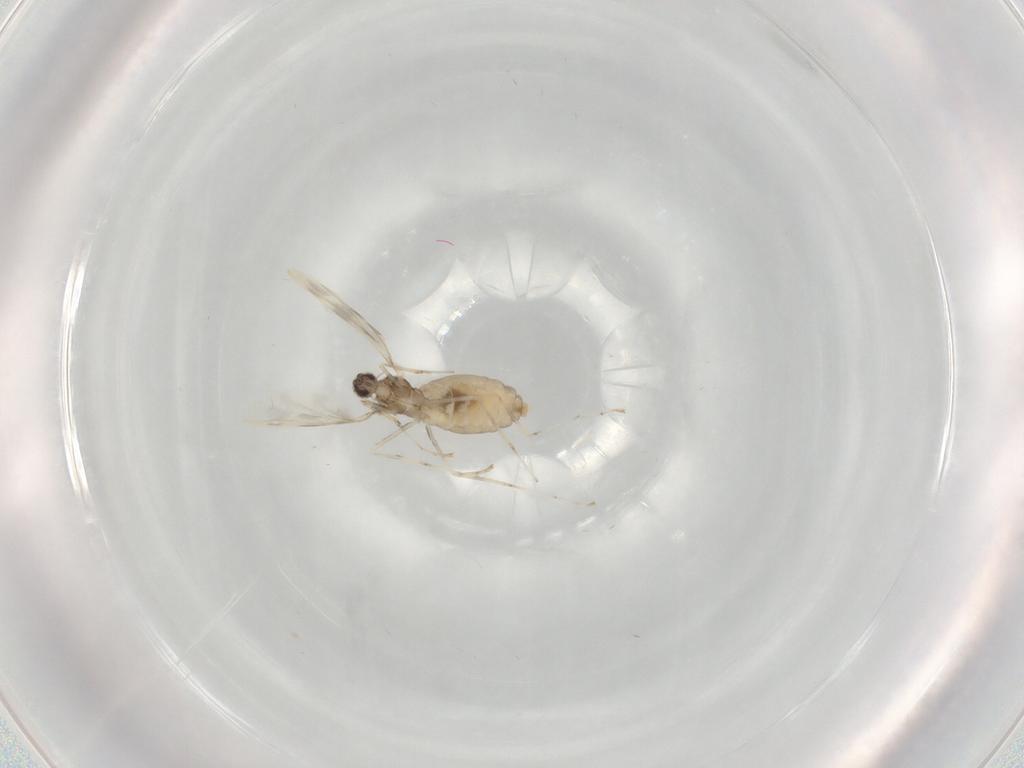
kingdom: Animalia
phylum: Arthropoda
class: Insecta
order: Diptera
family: Cecidomyiidae
